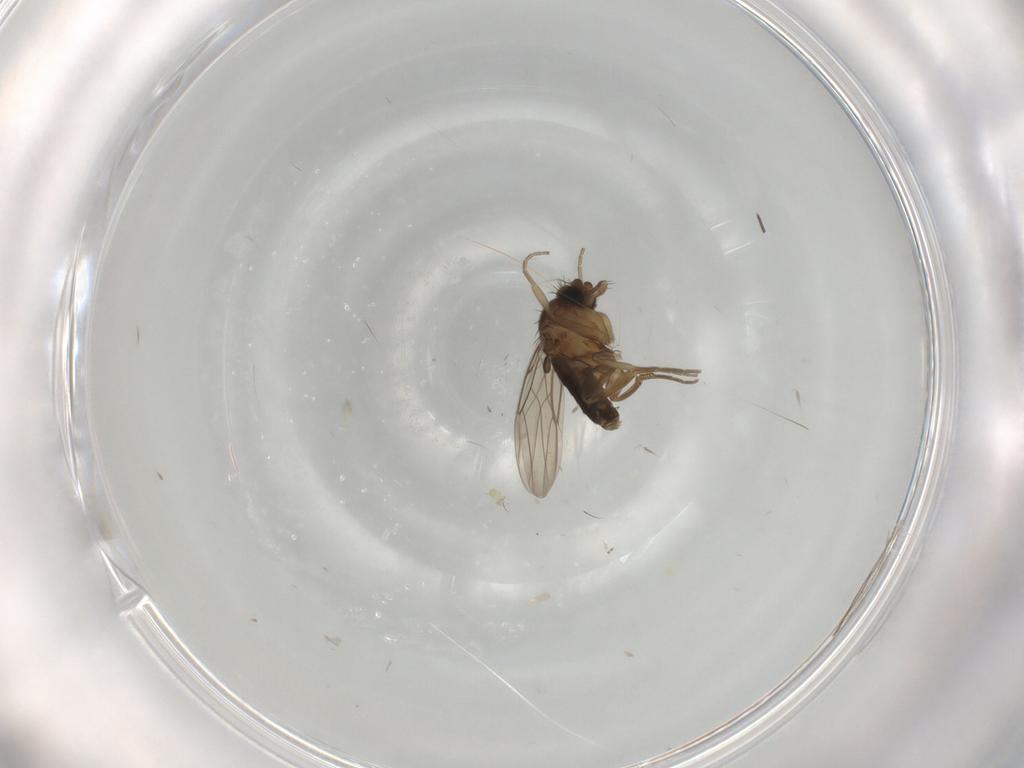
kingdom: Animalia
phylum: Arthropoda
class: Insecta
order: Diptera
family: Phoridae
